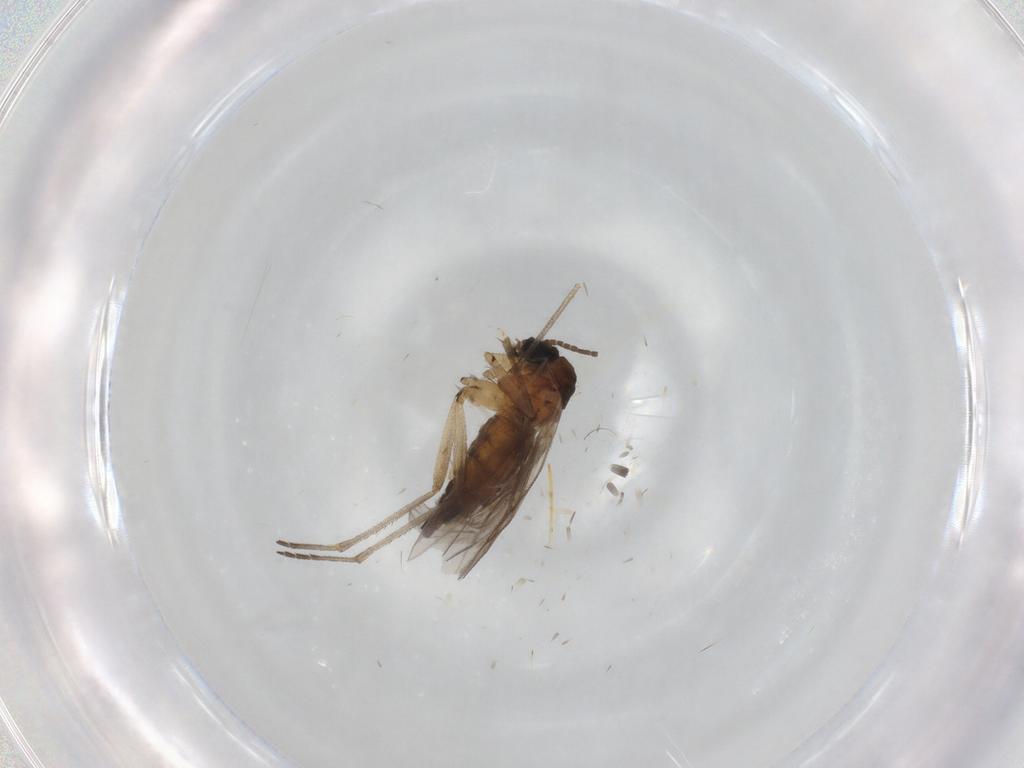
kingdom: Animalia
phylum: Arthropoda
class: Insecta
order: Diptera
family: Sciaridae
